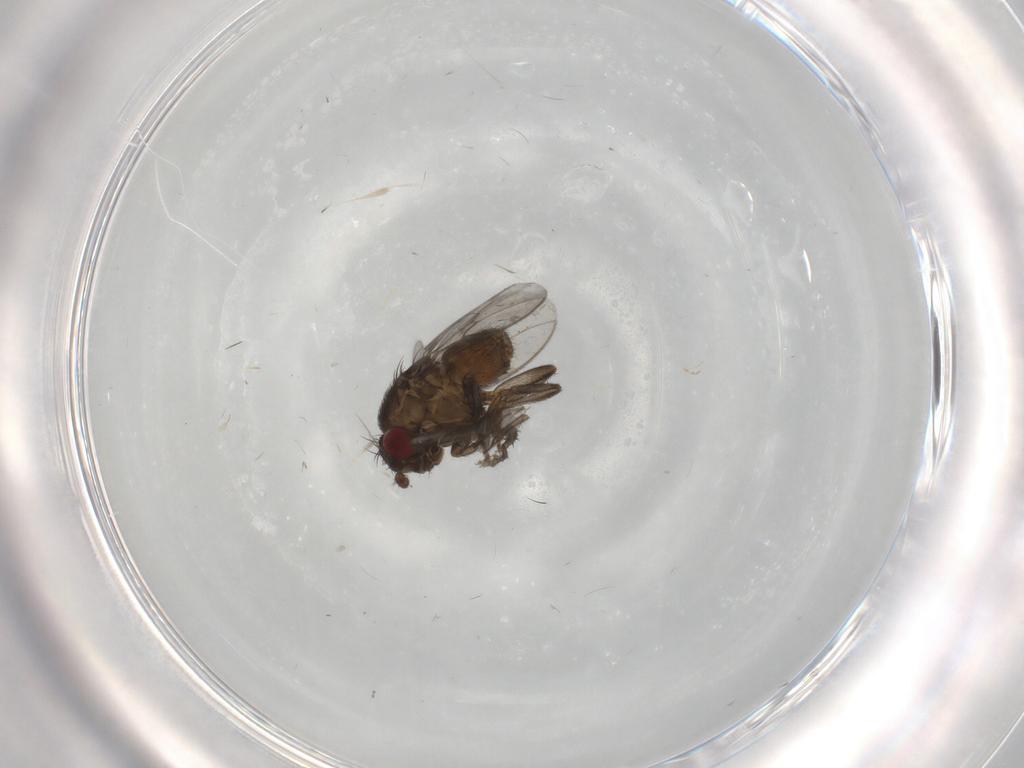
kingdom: Animalia
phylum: Arthropoda
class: Insecta
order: Diptera
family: Sphaeroceridae
